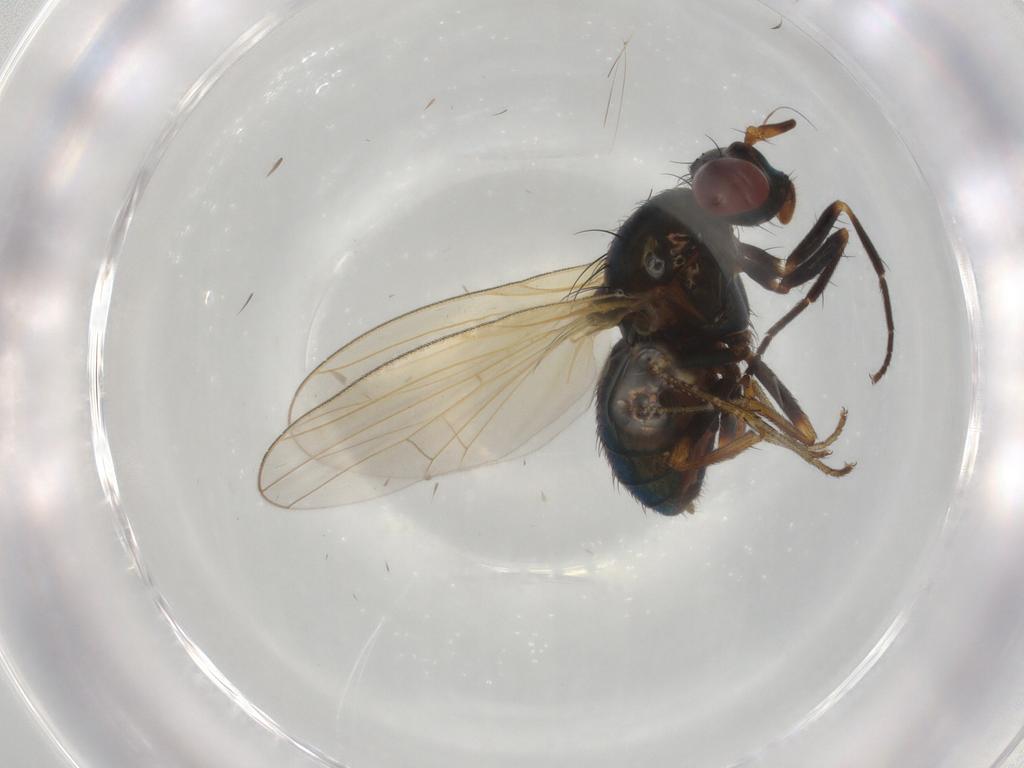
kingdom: Animalia
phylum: Arthropoda
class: Insecta
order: Diptera
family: Lauxaniidae
